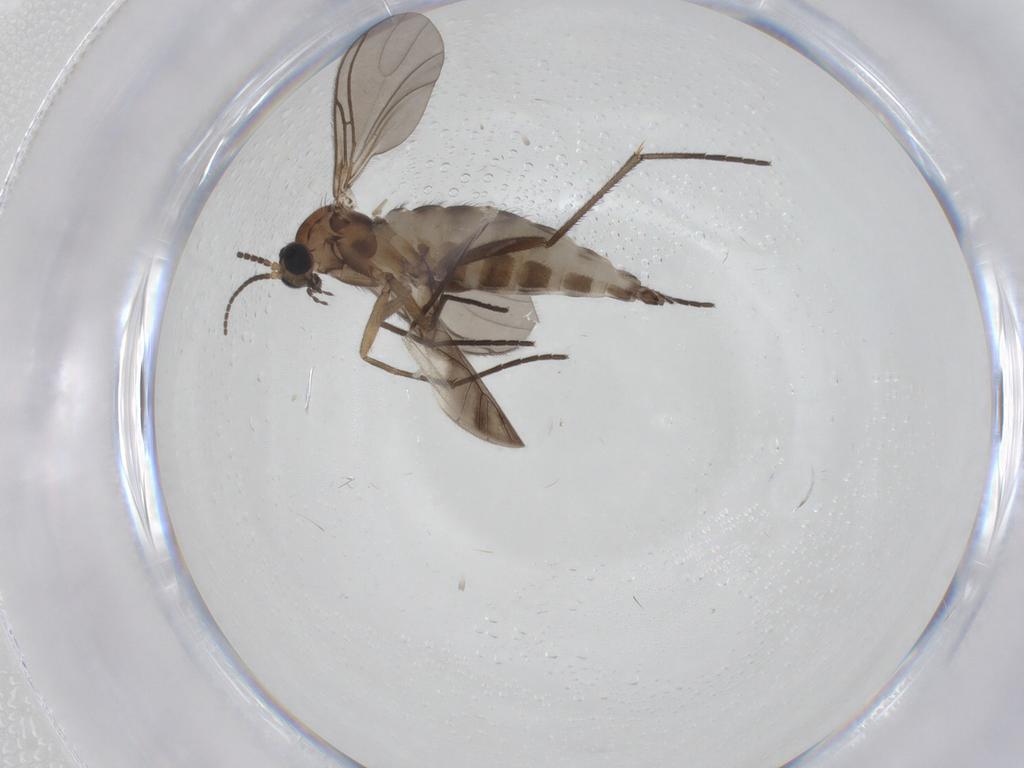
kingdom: Animalia
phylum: Arthropoda
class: Insecta
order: Diptera
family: Sciaridae
